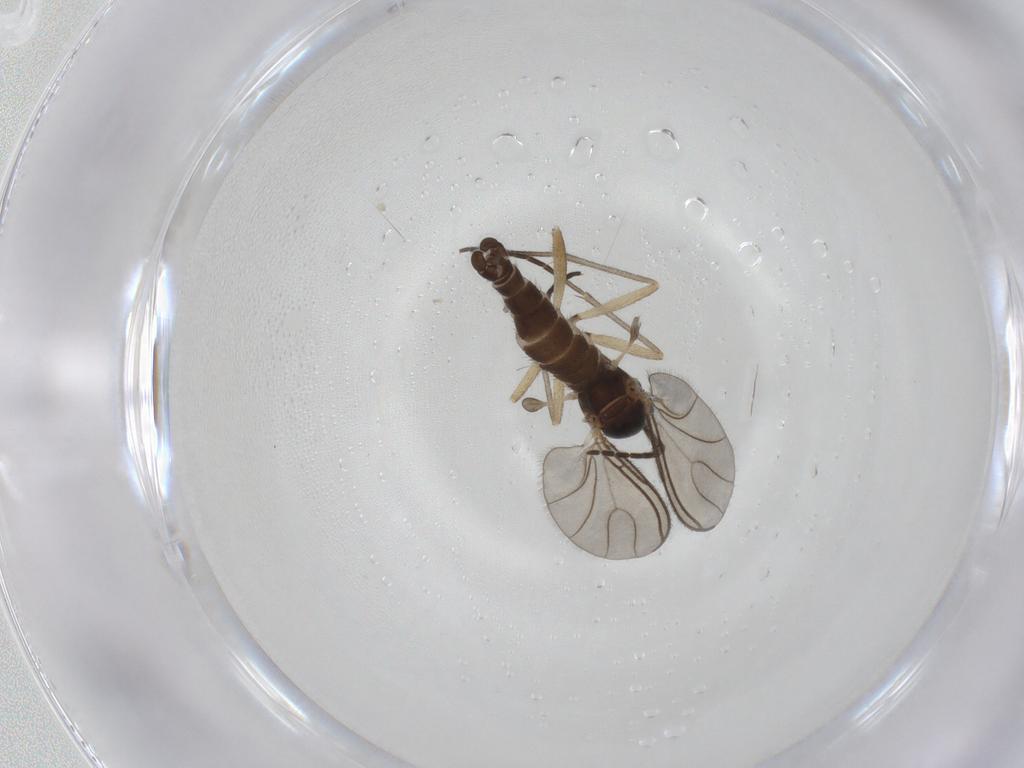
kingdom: Animalia
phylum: Arthropoda
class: Insecta
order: Diptera
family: Sciaridae
